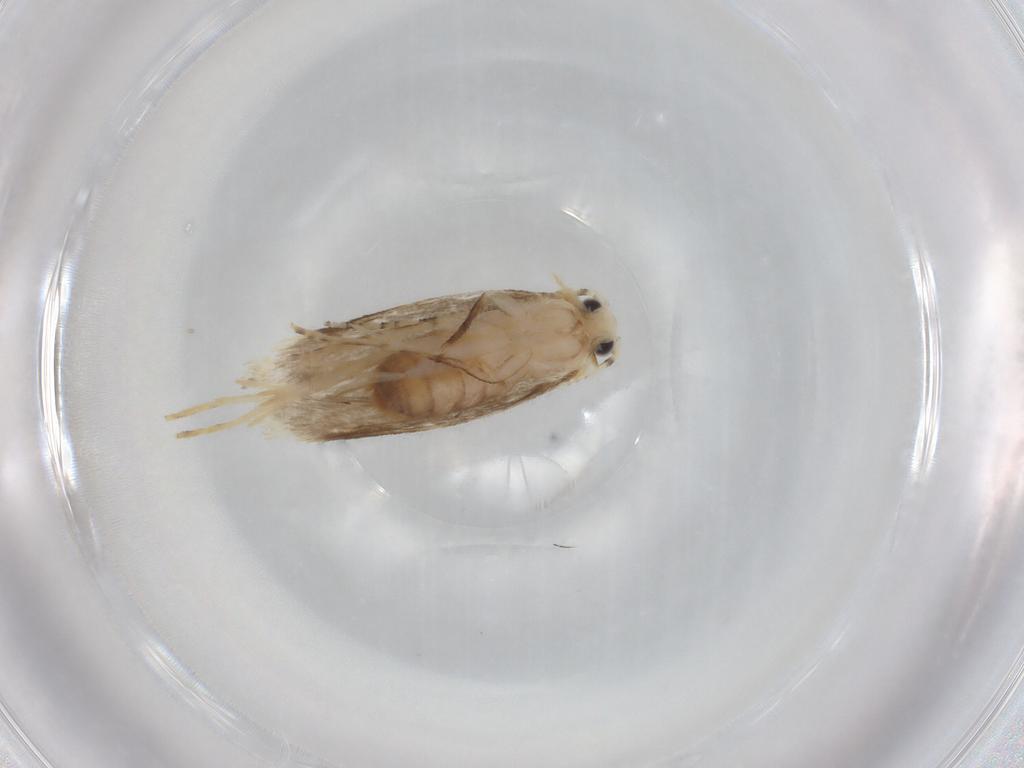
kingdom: Animalia
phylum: Arthropoda
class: Insecta
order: Lepidoptera
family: Dryadaulidae
